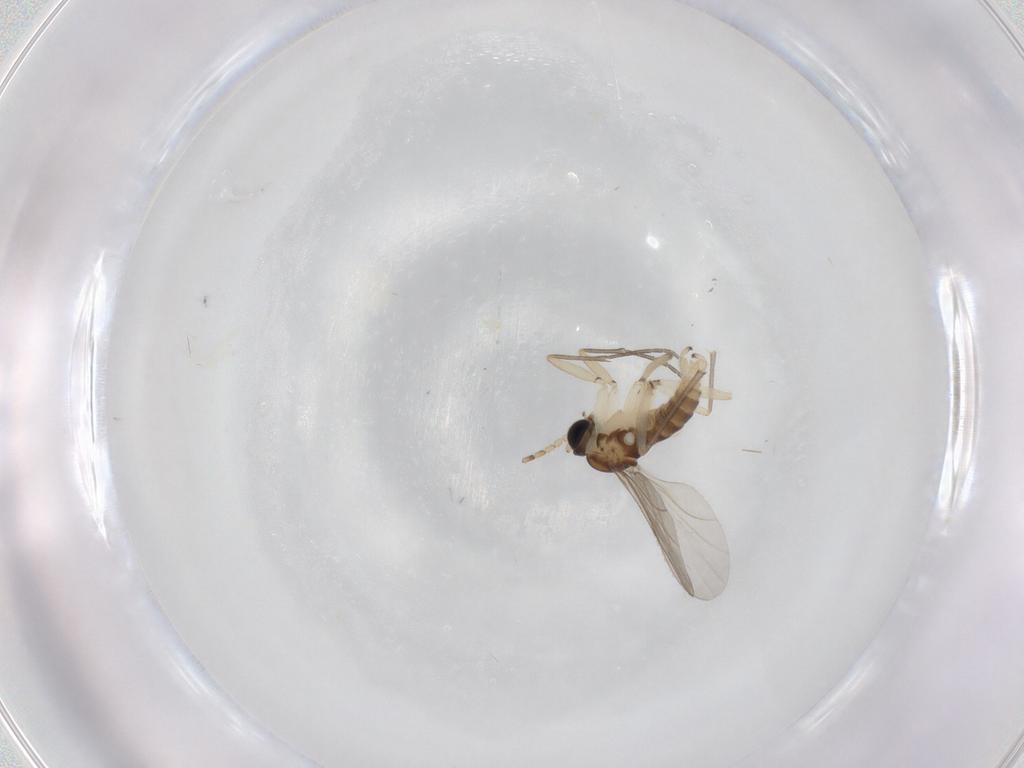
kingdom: Animalia
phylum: Arthropoda
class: Insecta
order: Diptera
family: Sciaridae
